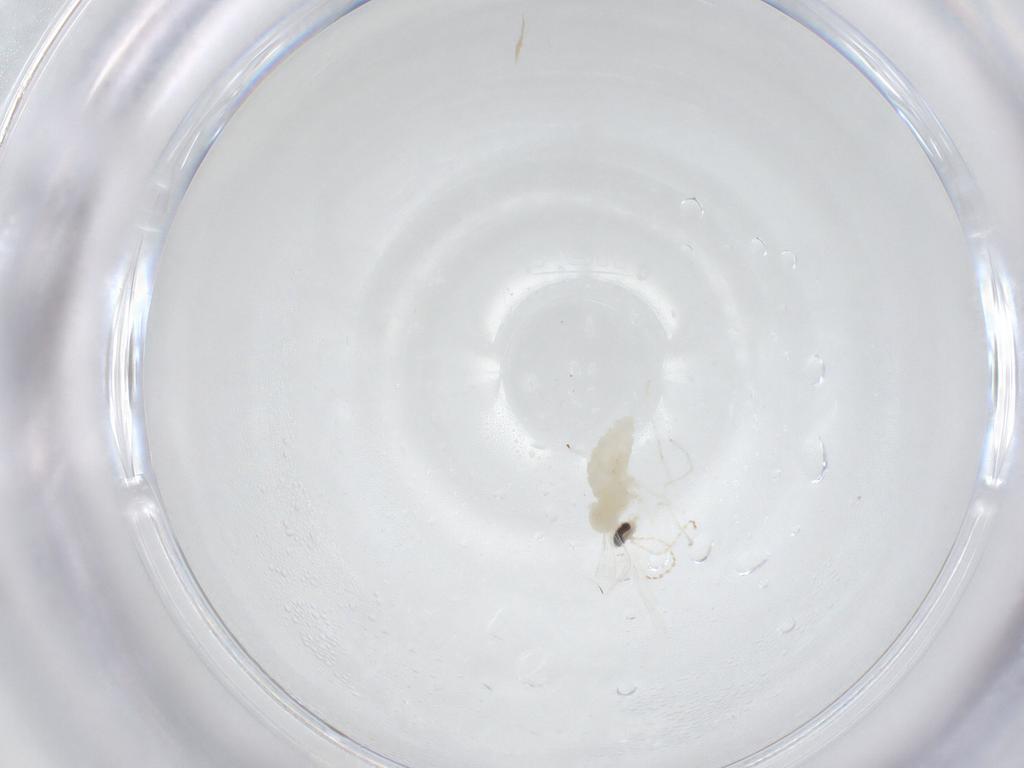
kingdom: Animalia
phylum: Arthropoda
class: Insecta
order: Diptera
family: Cecidomyiidae
